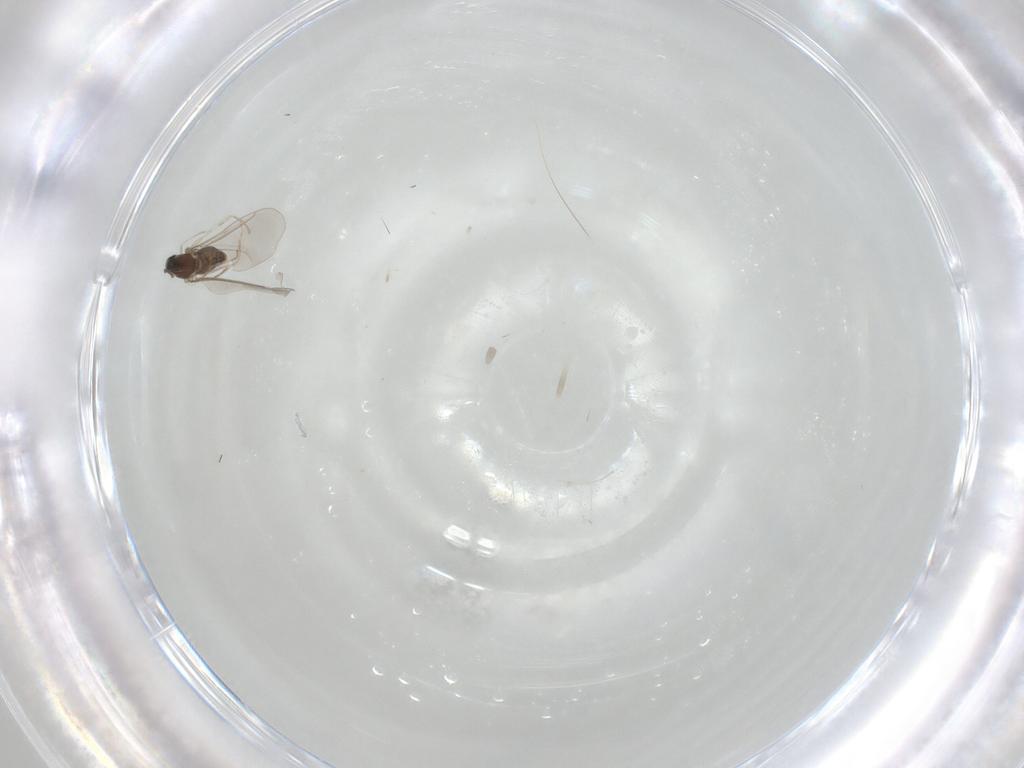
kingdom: Animalia
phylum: Arthropoda
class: Insecta
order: Diptera
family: Cecidomyiidae
